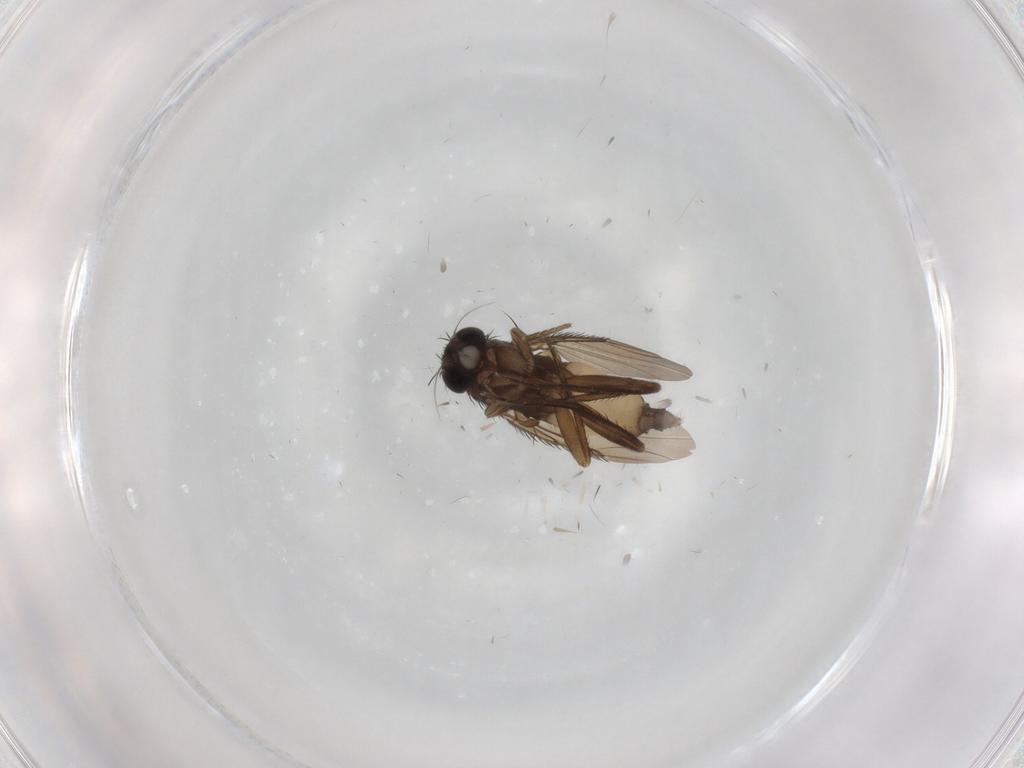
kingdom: Animalia
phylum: Arthropoda
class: Insecta
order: Diptera
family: Phoridae
